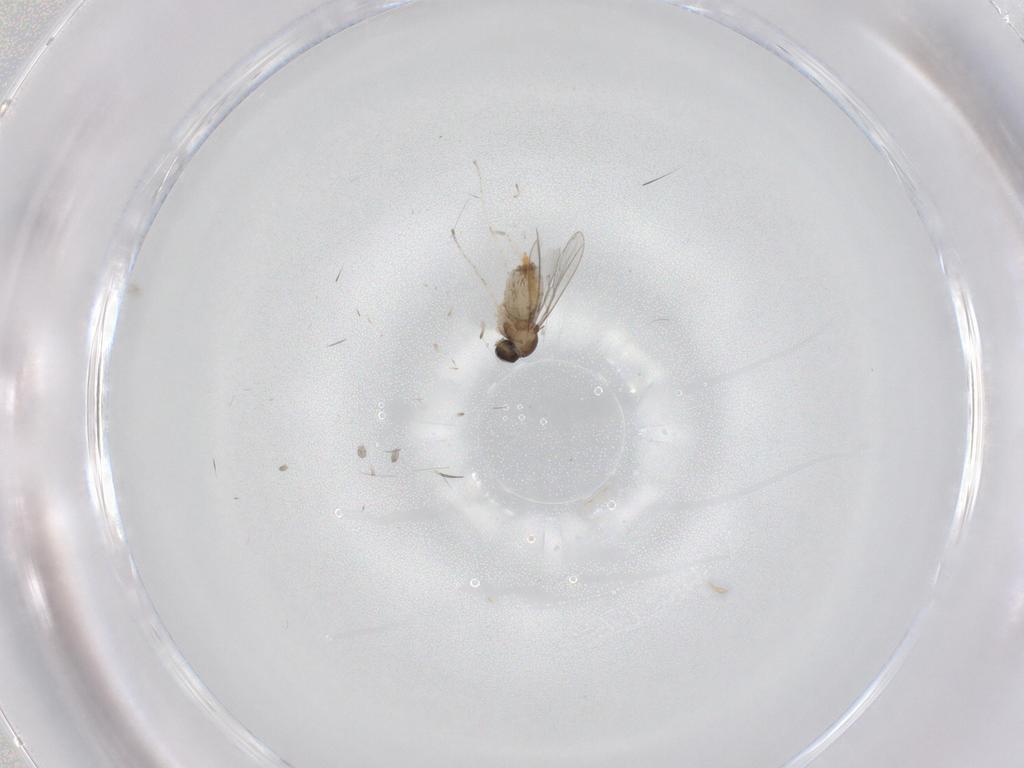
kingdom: Animalia
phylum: Arthropoda
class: Insecta
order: Diptera
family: Cecidomyiidae
